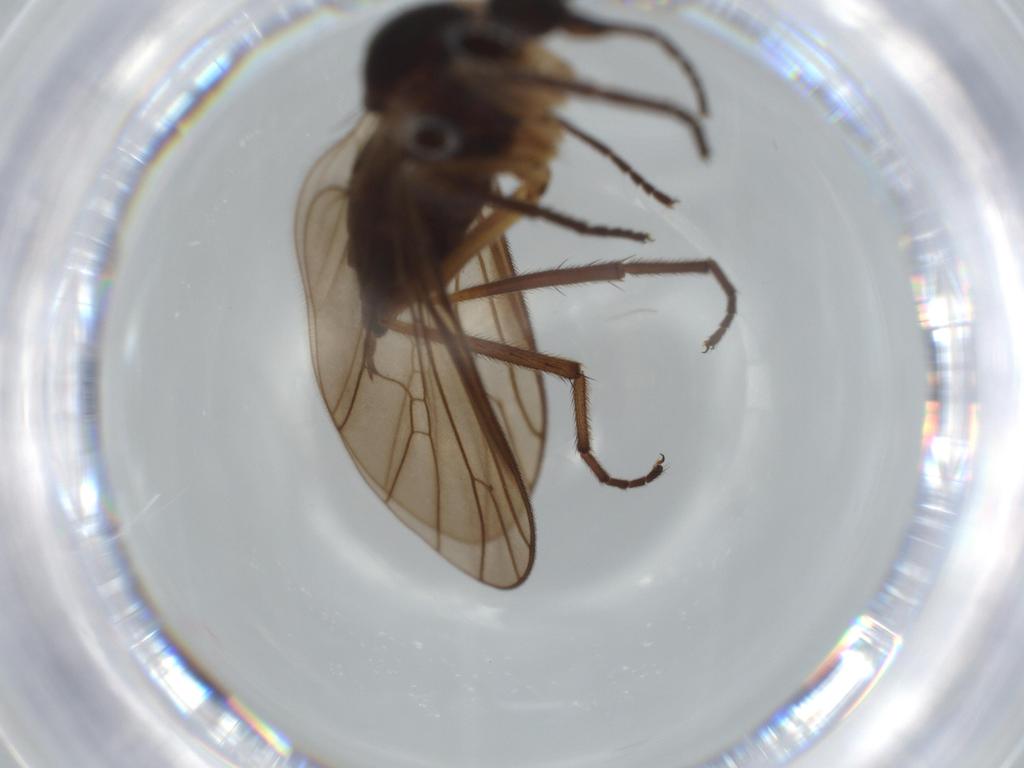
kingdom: Animalia
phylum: Arthropoda
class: Insecta
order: Diptera
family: Empididae
